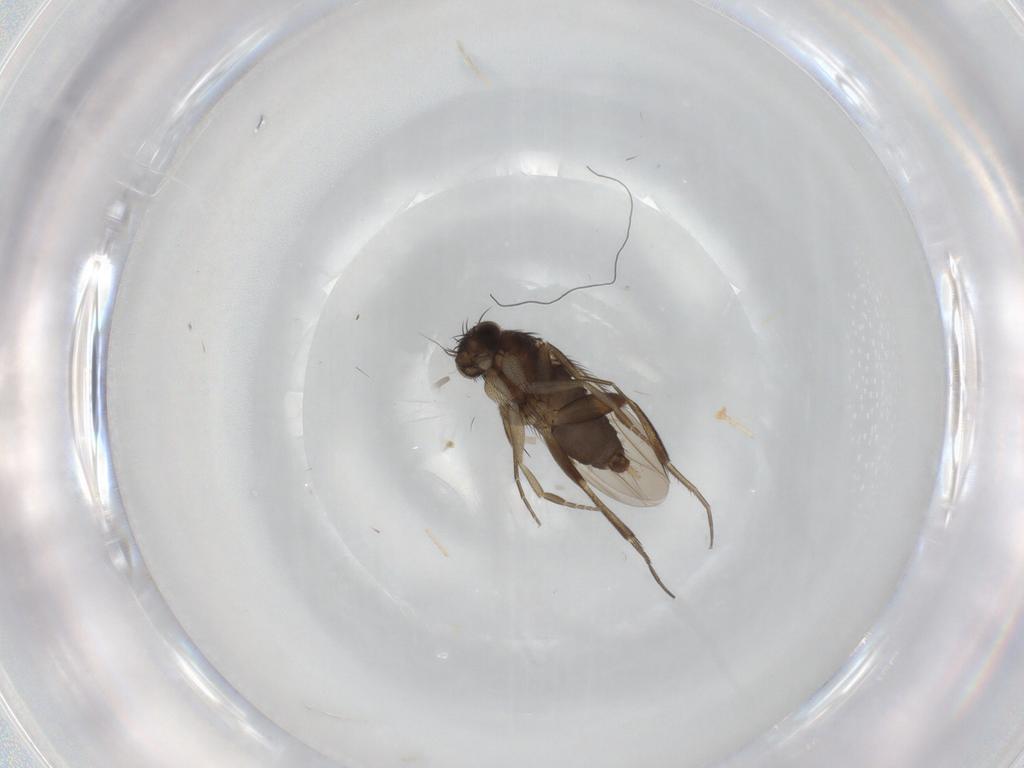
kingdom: Animalia
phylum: Arthropoda
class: Insecta
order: Diptera
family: Phoridae
